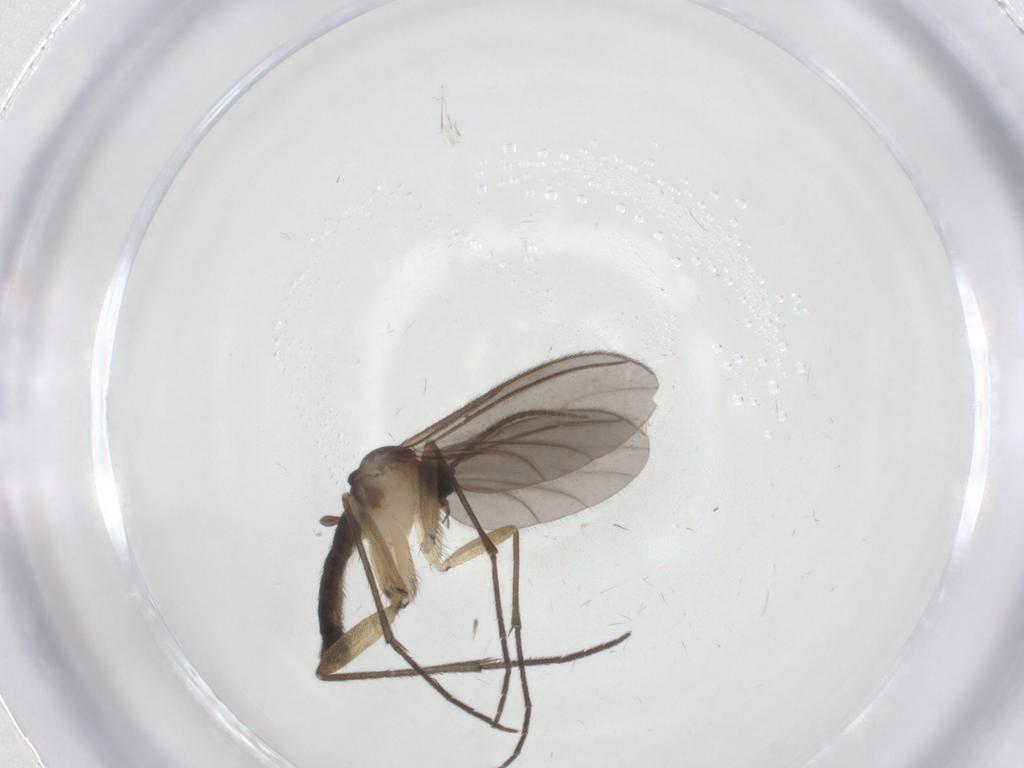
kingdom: Animalia
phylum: Arthropoda
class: Insecta
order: Diptera
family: Sciaridae
